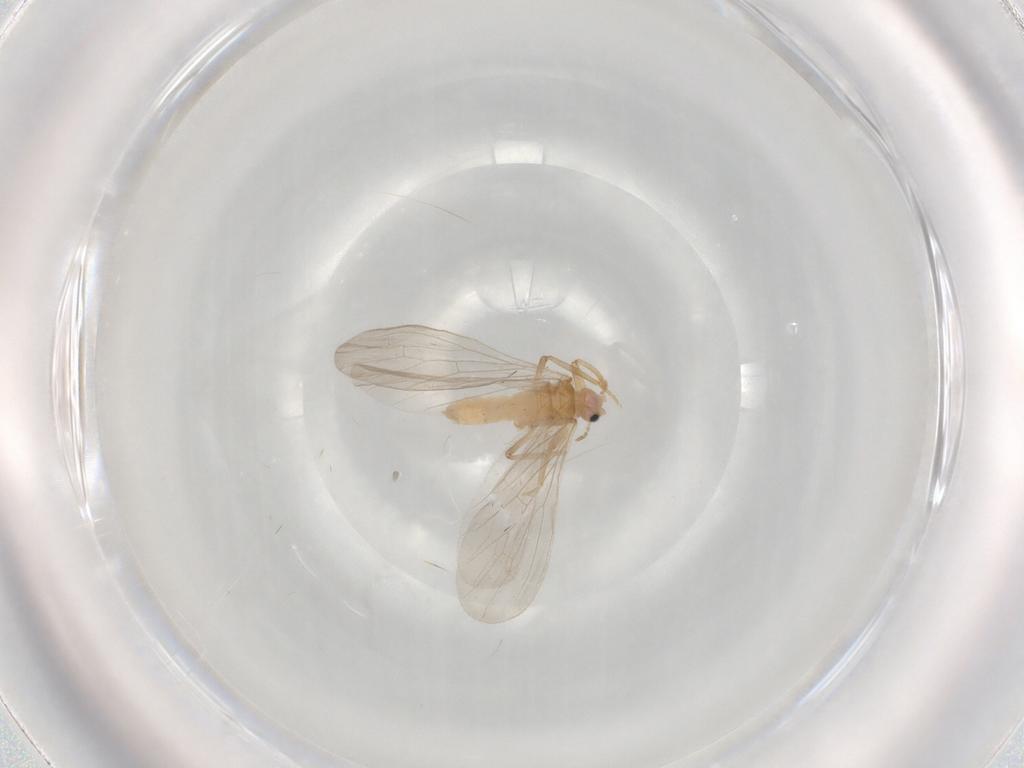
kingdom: Animalia
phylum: Arthropoda
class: Insecta
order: Neuroptera
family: Coniopterygidae
